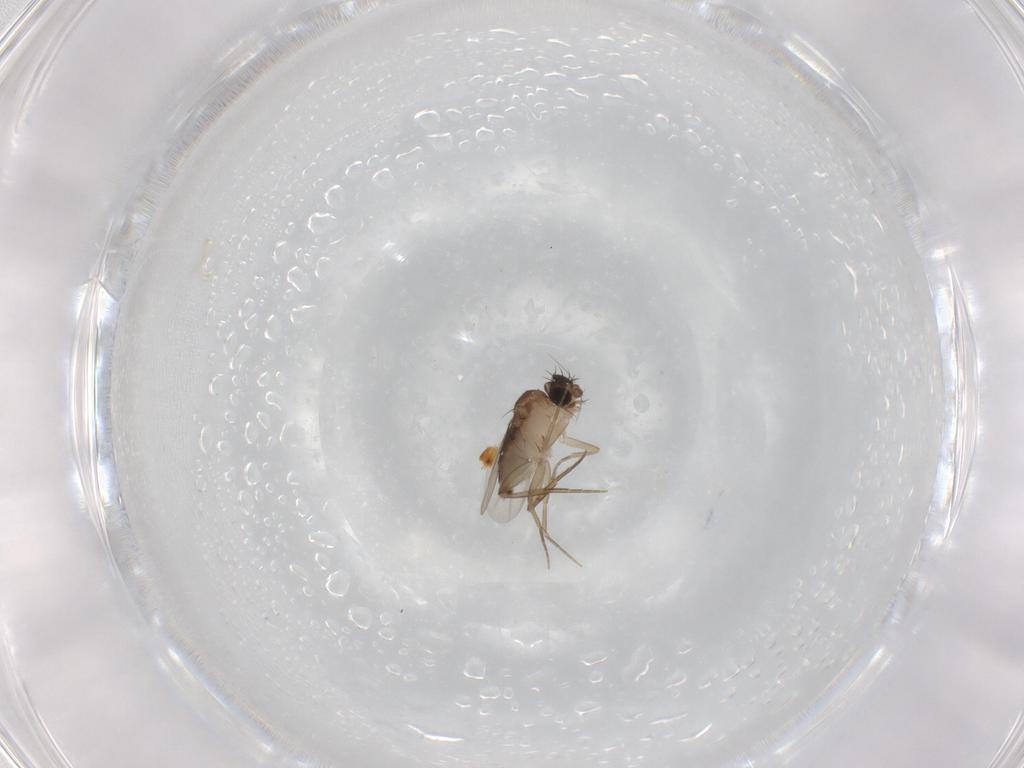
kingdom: Animalia
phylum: Arthropoda
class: Insecta
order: Diptera
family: Phoridae
